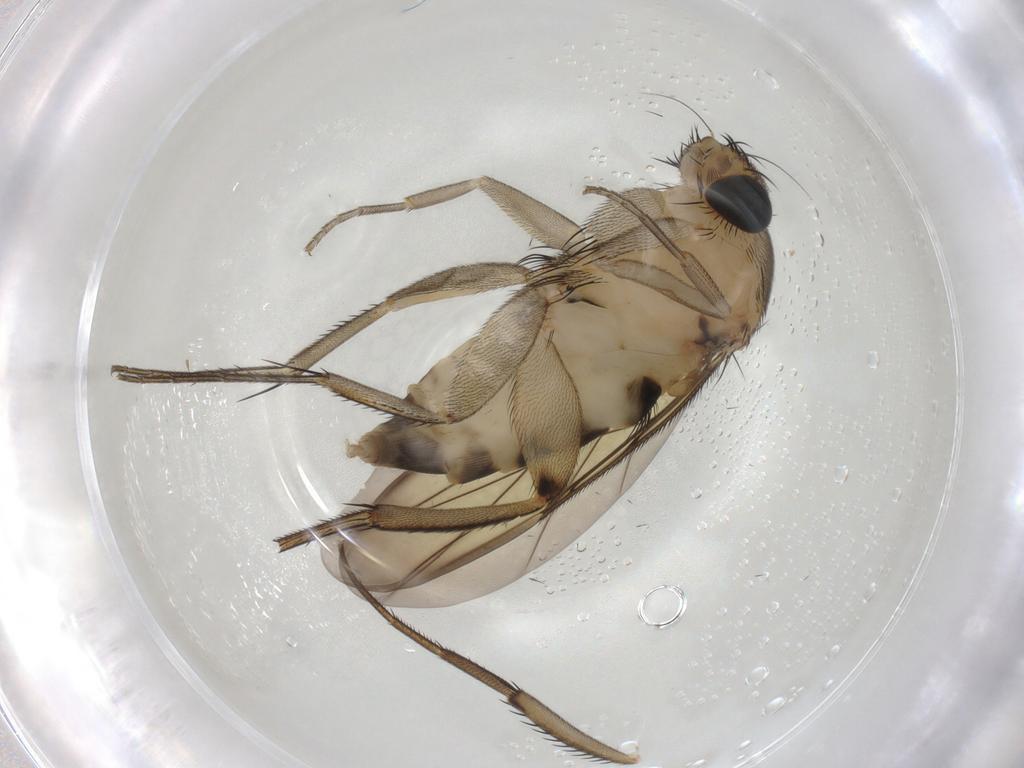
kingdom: Animalia
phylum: Arthropoda
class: Insecta
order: Diptera
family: Phoridae
